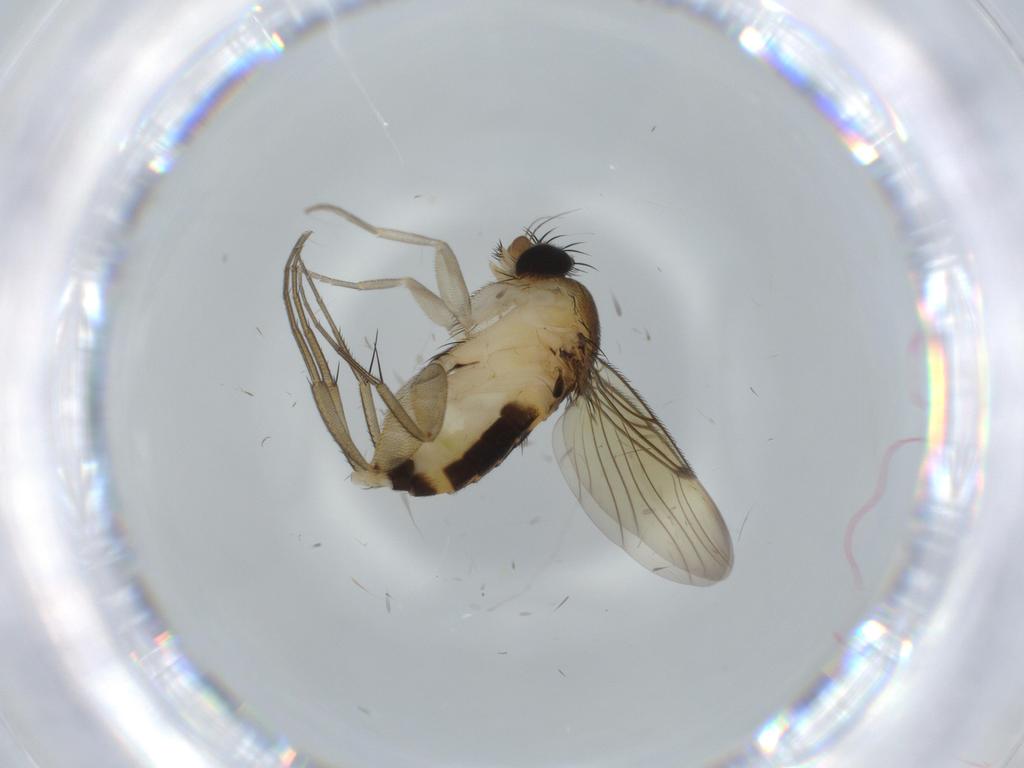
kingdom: Animalia
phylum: Arthropoda
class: Insecta
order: Diptera
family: Phoridae
